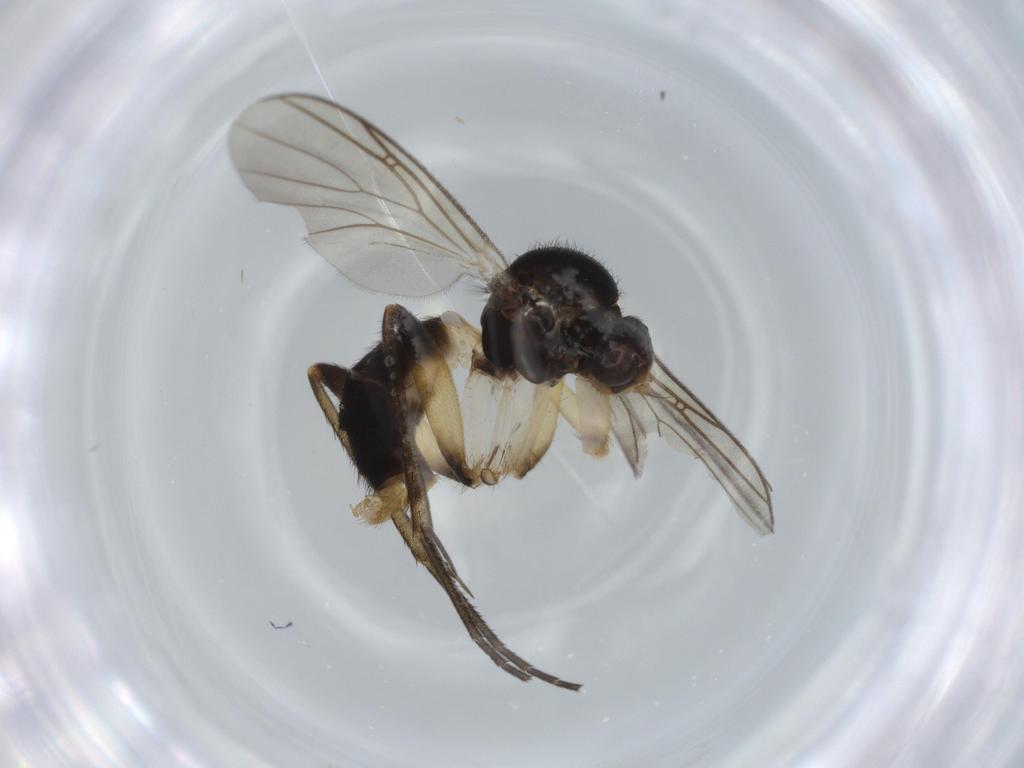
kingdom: Animalia
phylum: Arthropoda
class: Insecta
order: Diptera
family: Mycetophilidae
